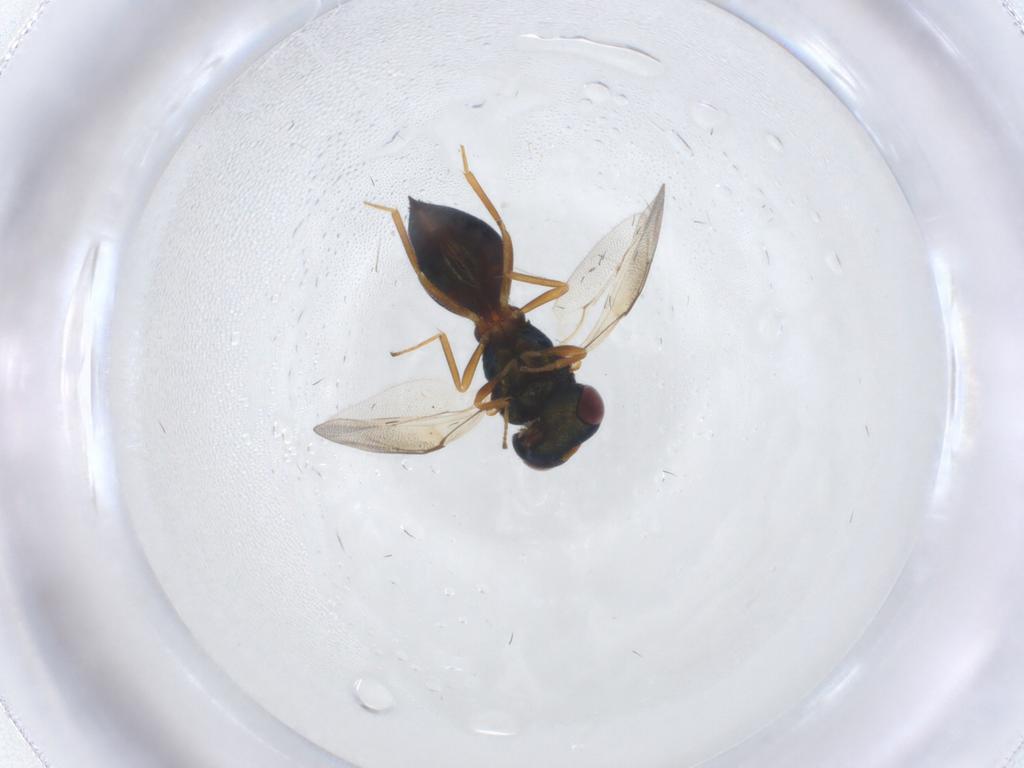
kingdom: Animalia
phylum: Arthropoda
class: Insecta
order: Hymenoptera
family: Pteromalidae
